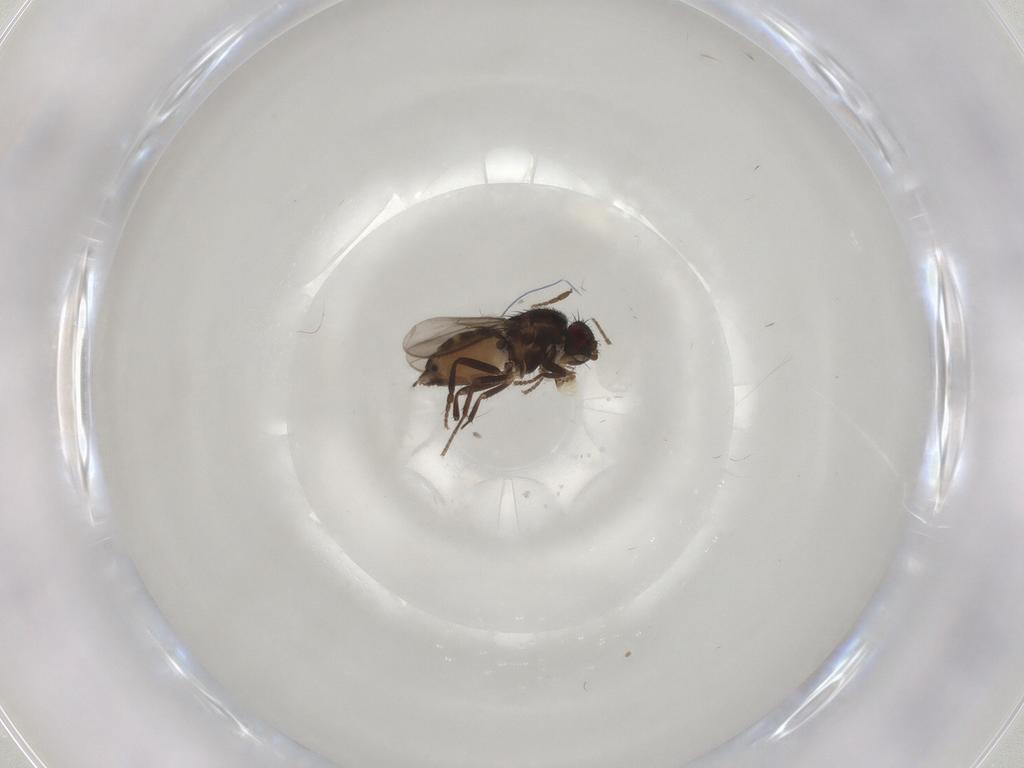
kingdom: Animalia
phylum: Arthropoda
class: Insecta
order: Diptera
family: Sphaeroceridae
